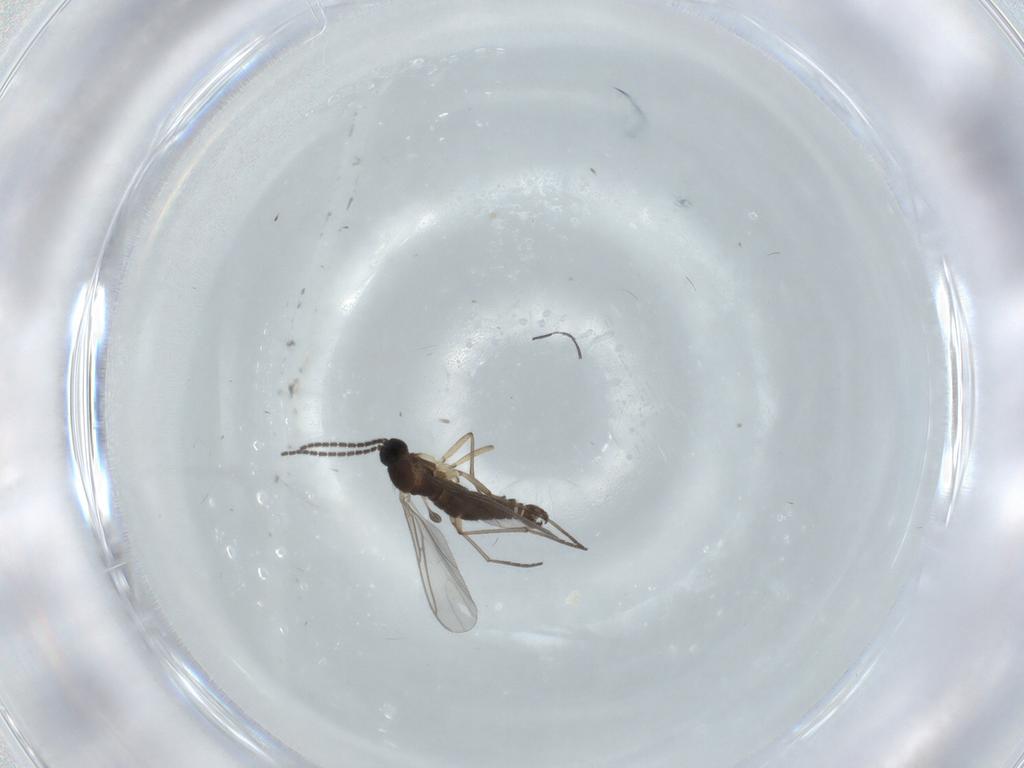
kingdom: Animalia
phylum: Arthropoda
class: Insecta
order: Diptera
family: Sciaridae
